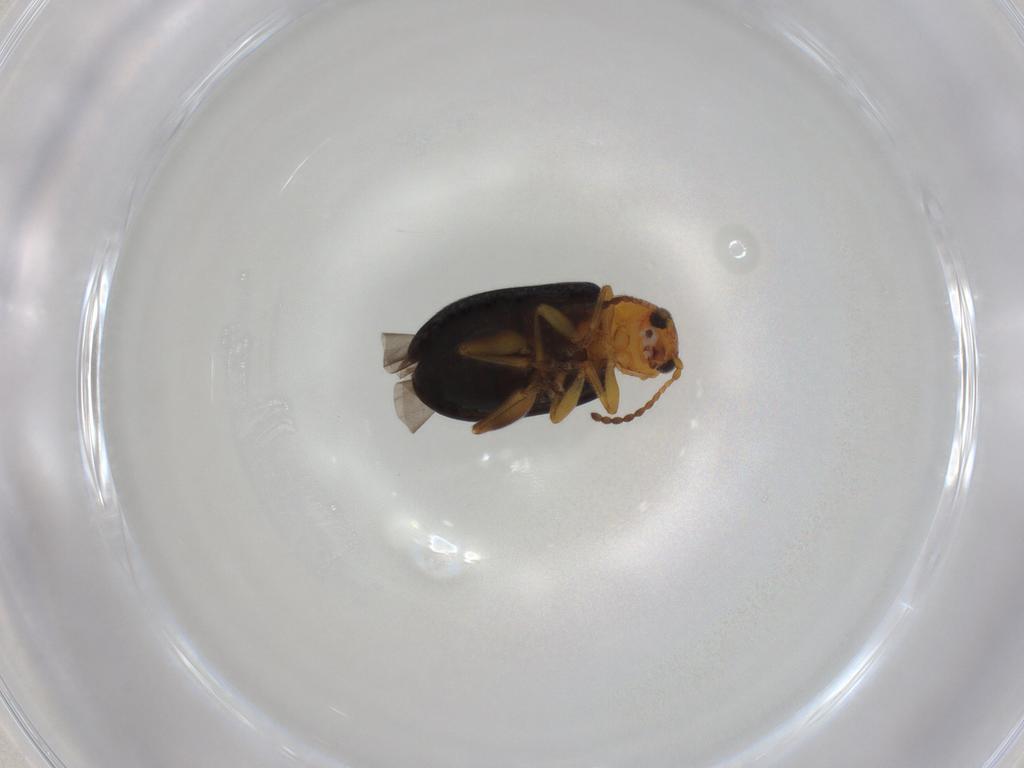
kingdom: Animalia
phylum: Arthropoda
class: Insecta
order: Coleoptera
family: Chrysomelidae
